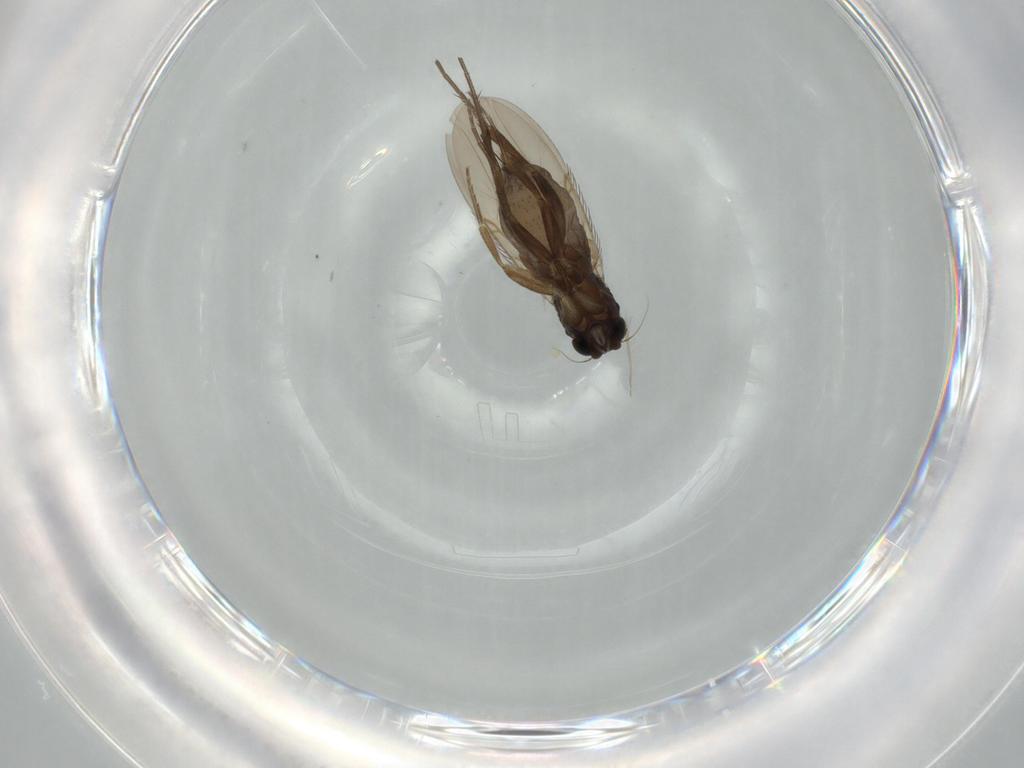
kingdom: Animalia
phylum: Arthropoda
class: Insecta
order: Diptera
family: Phoridae
